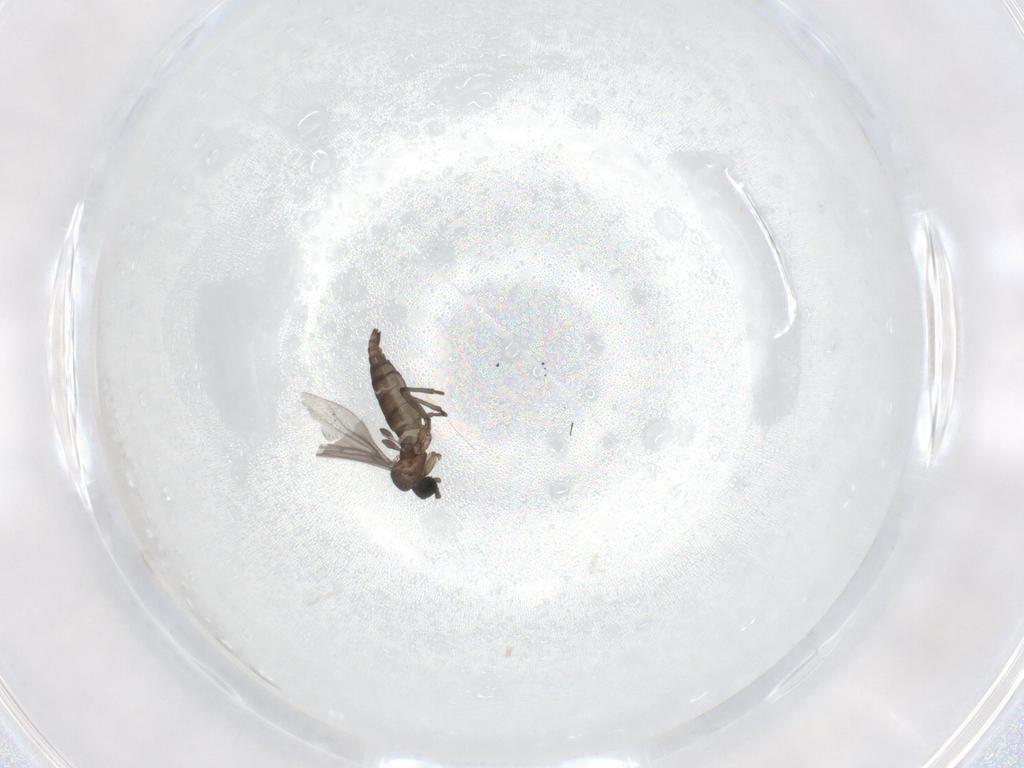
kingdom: Animalia
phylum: Arthropoda
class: Insecta
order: Diptera
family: Sciaridae
